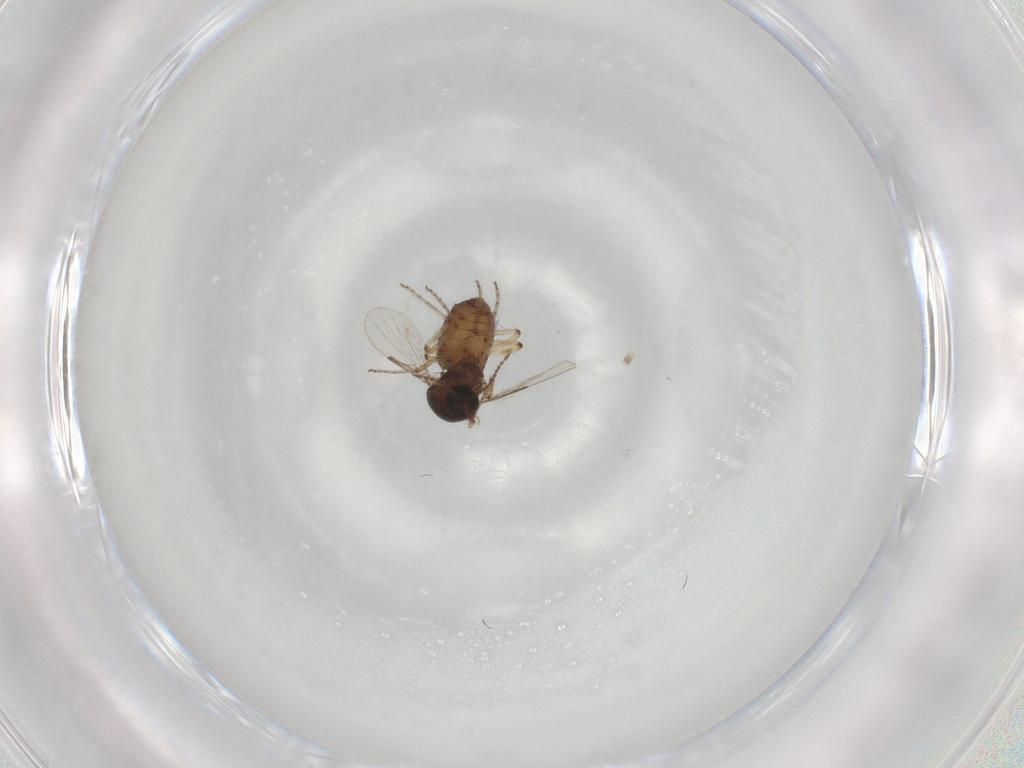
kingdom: Animalia
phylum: Arthropoda
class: Insecta
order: Diptera
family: Ceratopogonidae
